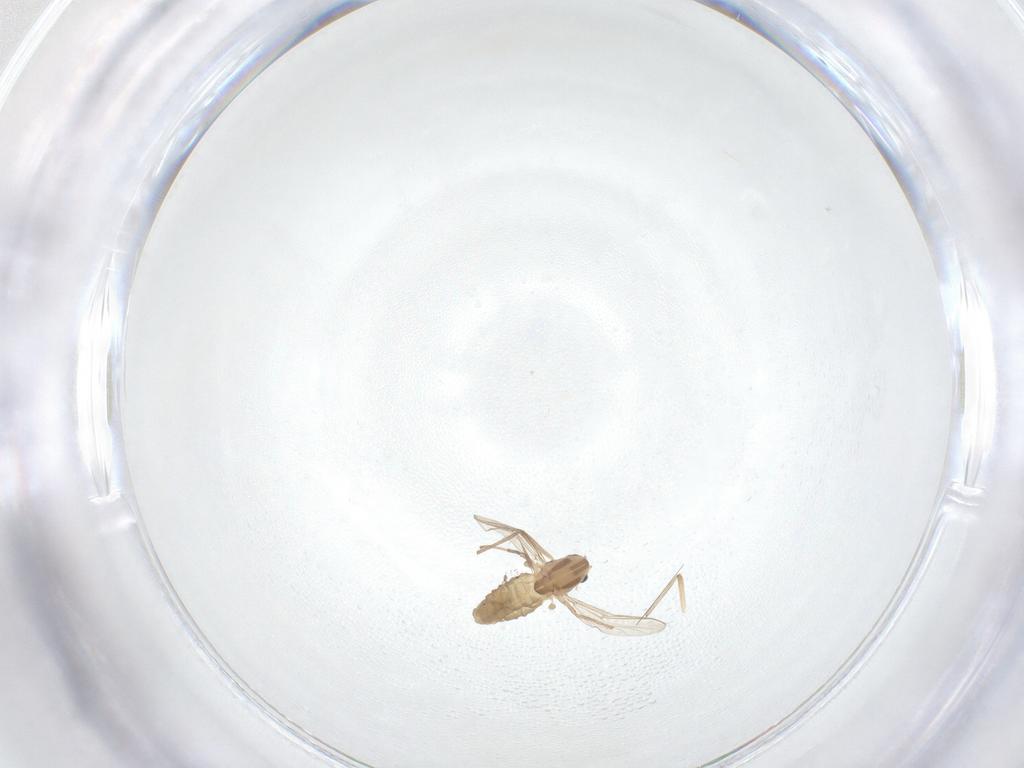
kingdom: Animalia
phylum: Arthropoda
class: Insecta
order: Diptera
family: Chironomidae
